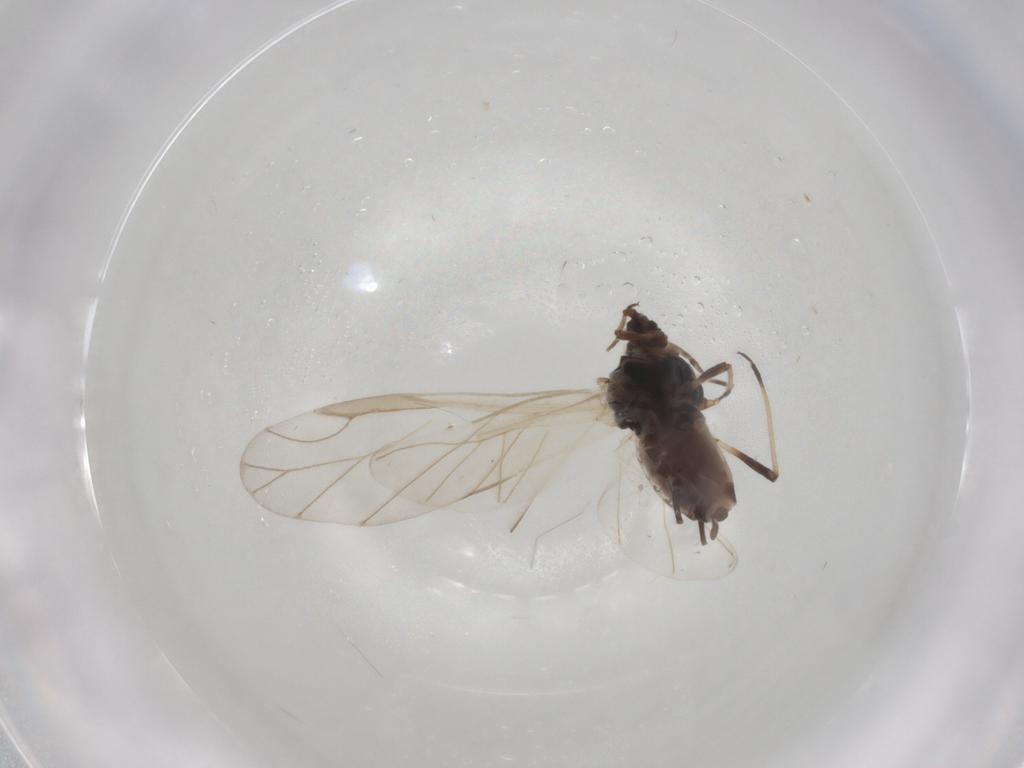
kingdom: Animalia
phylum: Arthropoda
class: Insecta
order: Hemiptera
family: Aphididae
